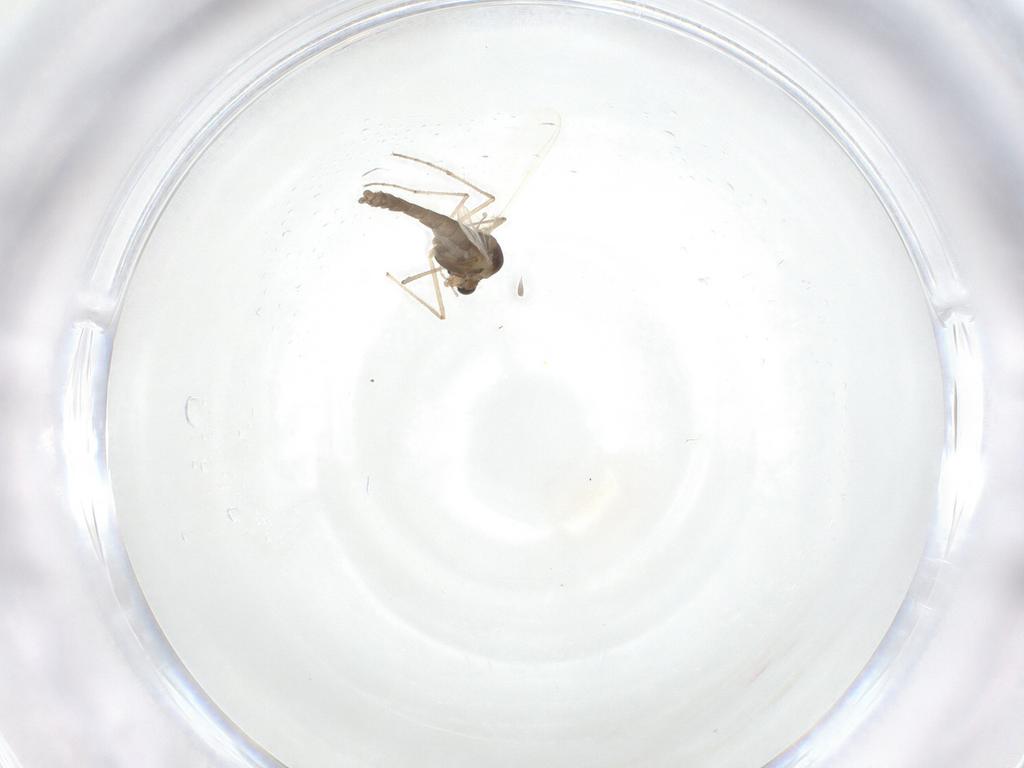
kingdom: Animalia
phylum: Arthropoda
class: Insecta
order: Diptera
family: Chironomidae
